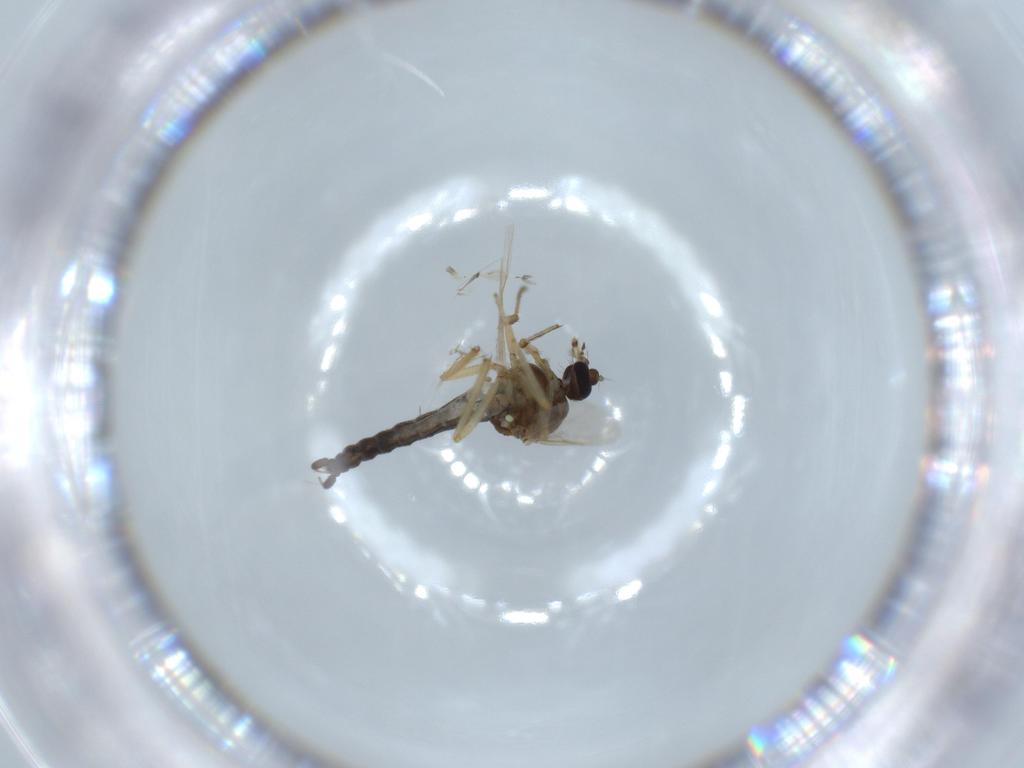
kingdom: Animalia
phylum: Arthropoda
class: Insecta
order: Diptera
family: Ceratopogonidae
